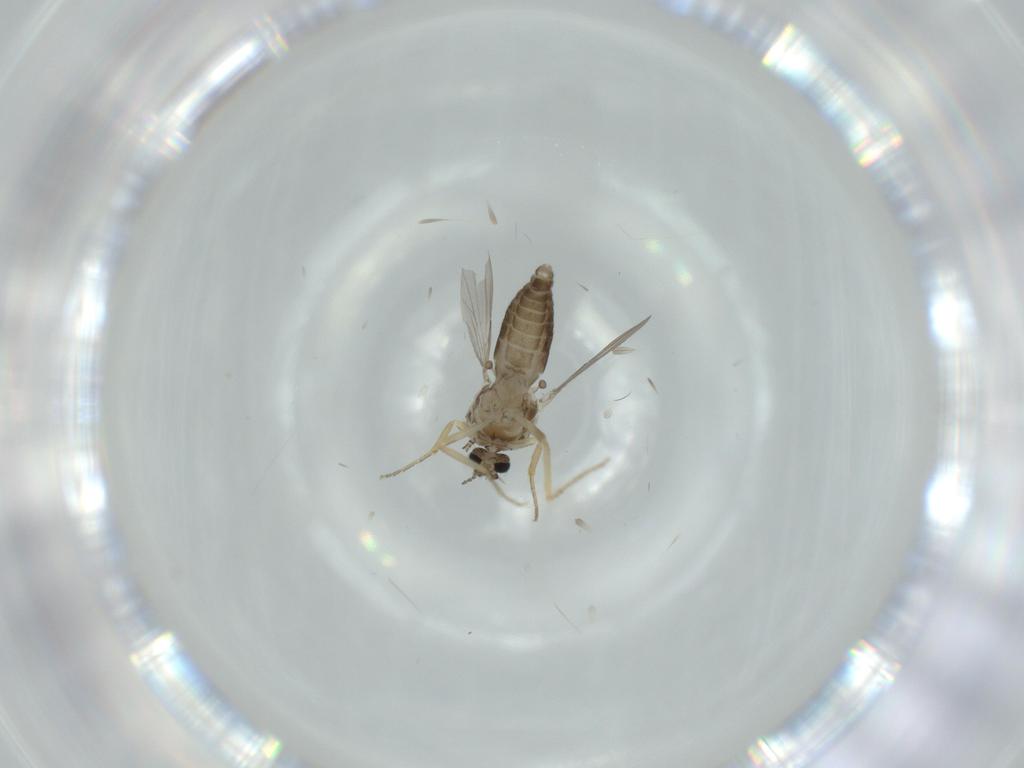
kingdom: Animalia
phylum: Arthropoda
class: Insecta
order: Diptera
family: Ceratopogonidae
